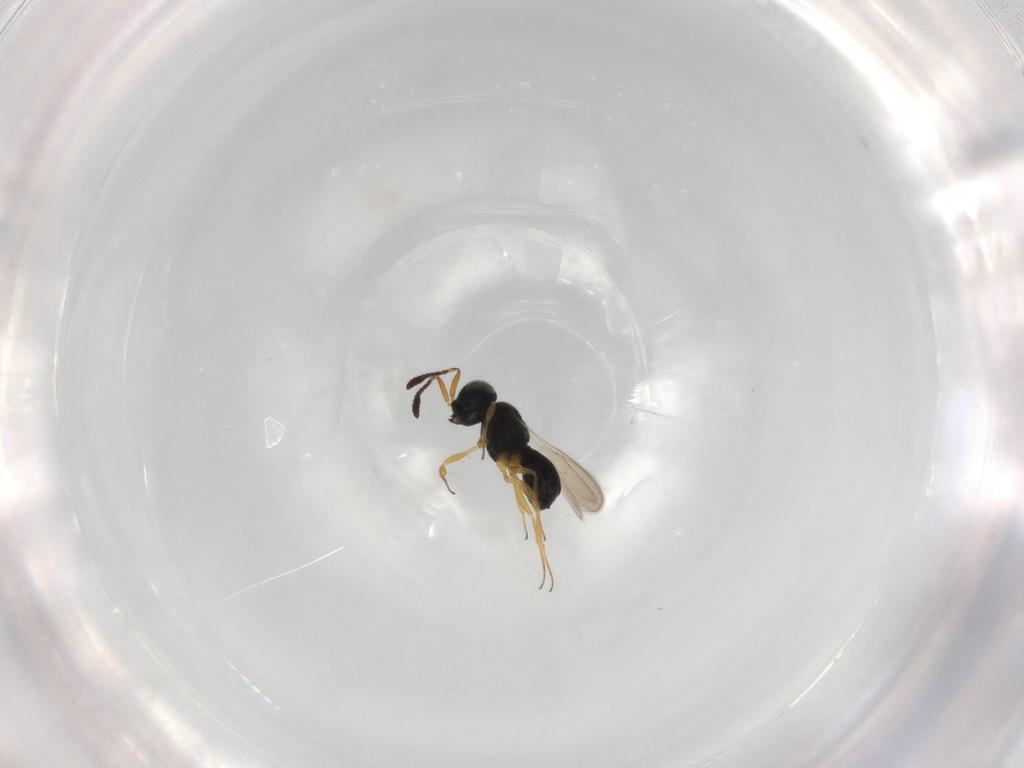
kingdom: Animalia
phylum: Arthropoda
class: Insecta
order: Hymenoptera
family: Scelionidae
